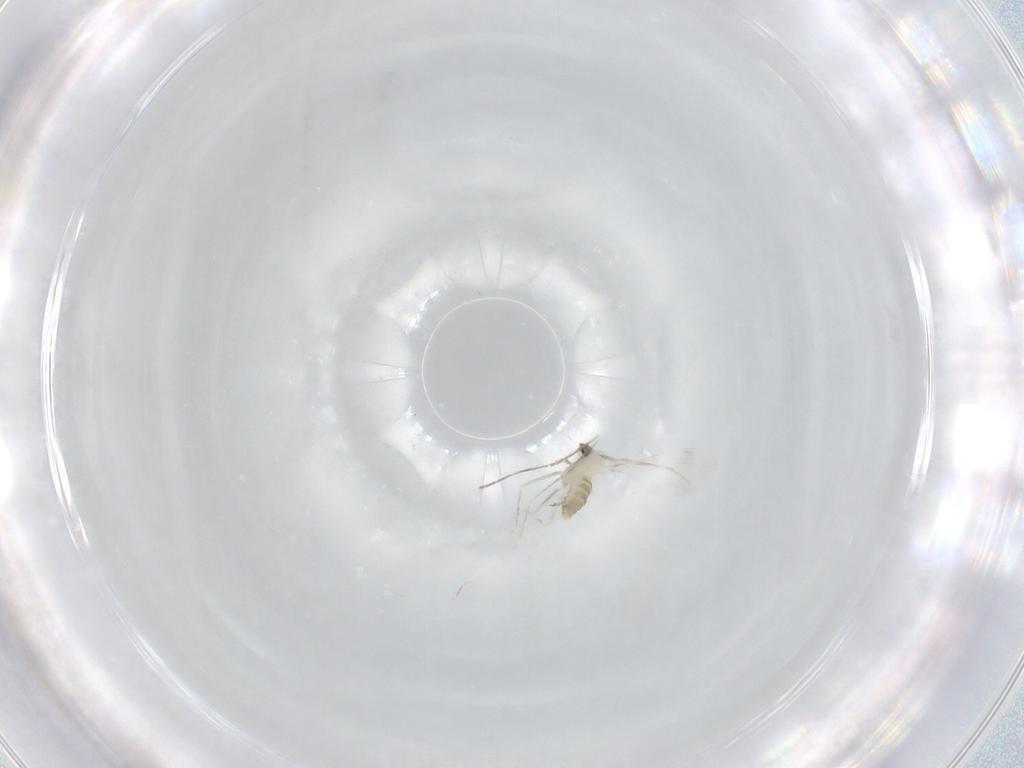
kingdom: Animalia
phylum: Arthropoda
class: Insecta
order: Diptera
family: Cecidomyiidae
